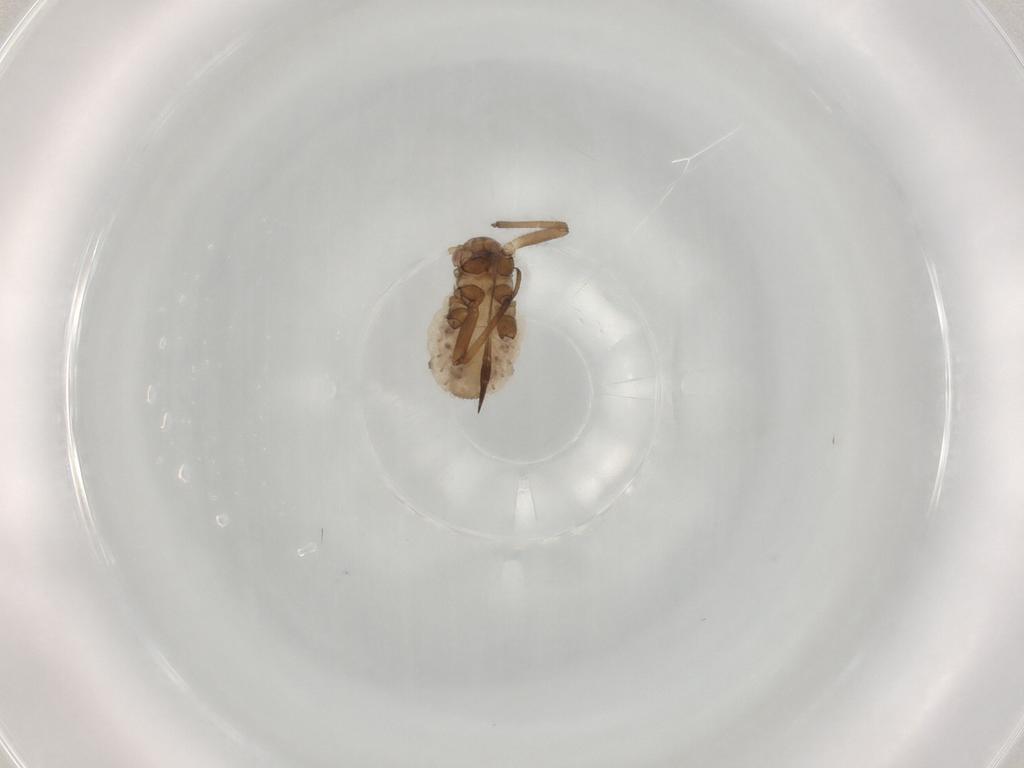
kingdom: Animalia
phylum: Arthropoda
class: Insecta
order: Hemiptera
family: Aphididae
